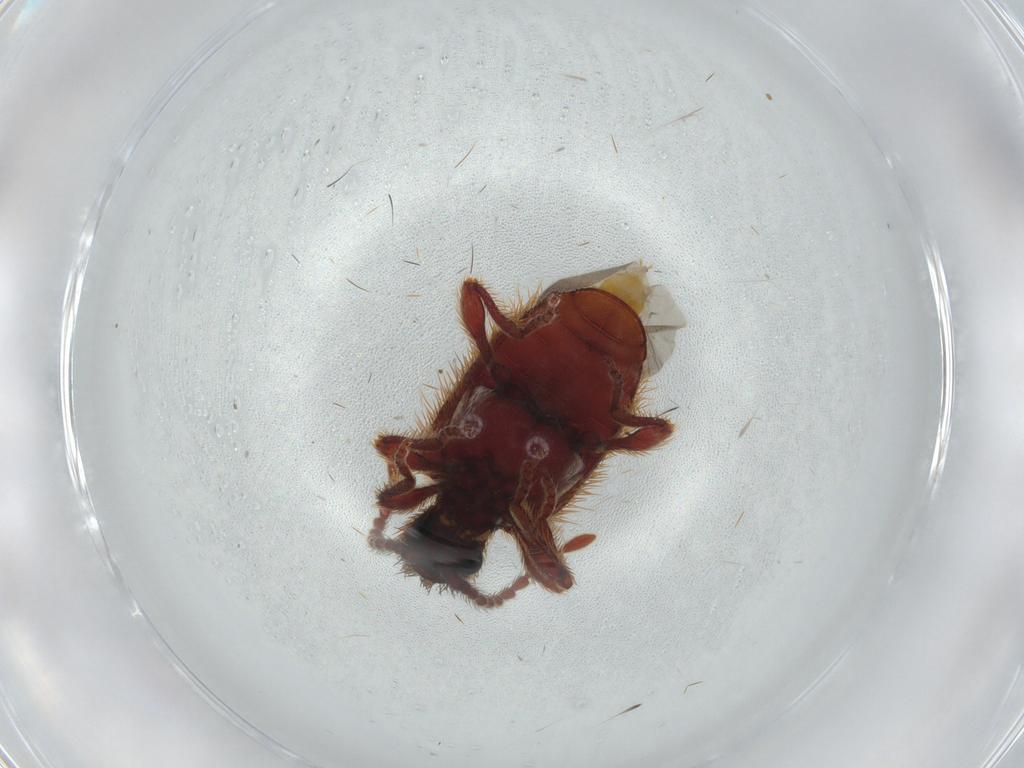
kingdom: Animalia
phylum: Arthropoda
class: Insecta
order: Coleoptera
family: Ptinidae
